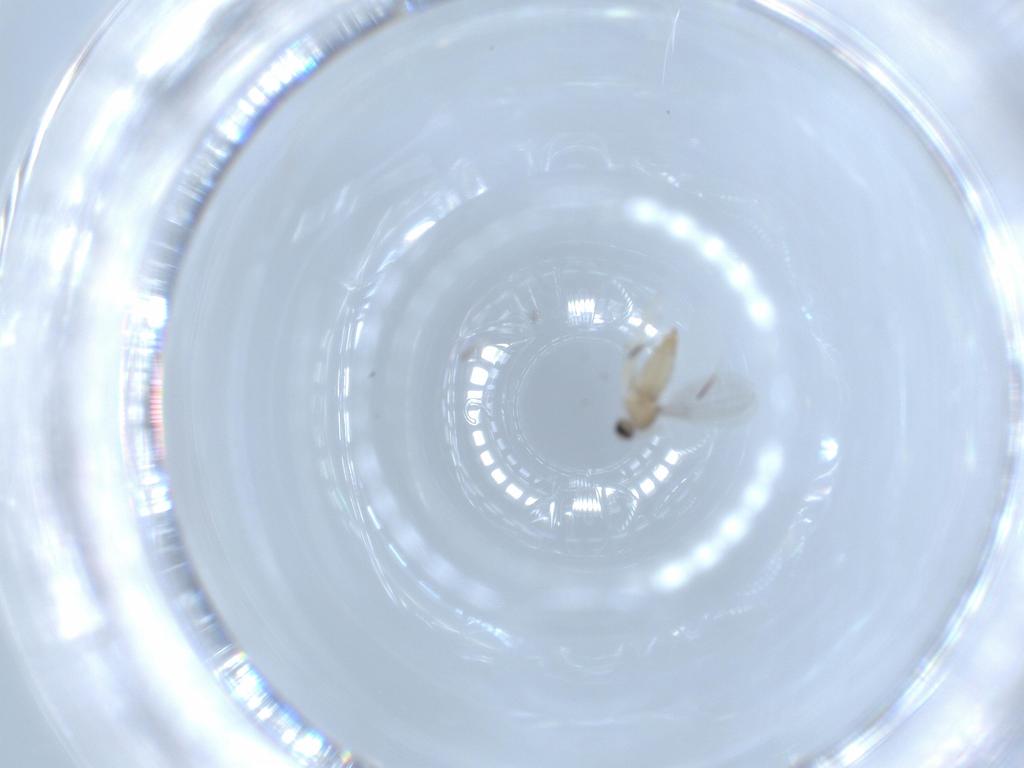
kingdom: Animalia
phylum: Arthropoda
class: Insecta
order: Diptera
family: Cecidomyiidae
